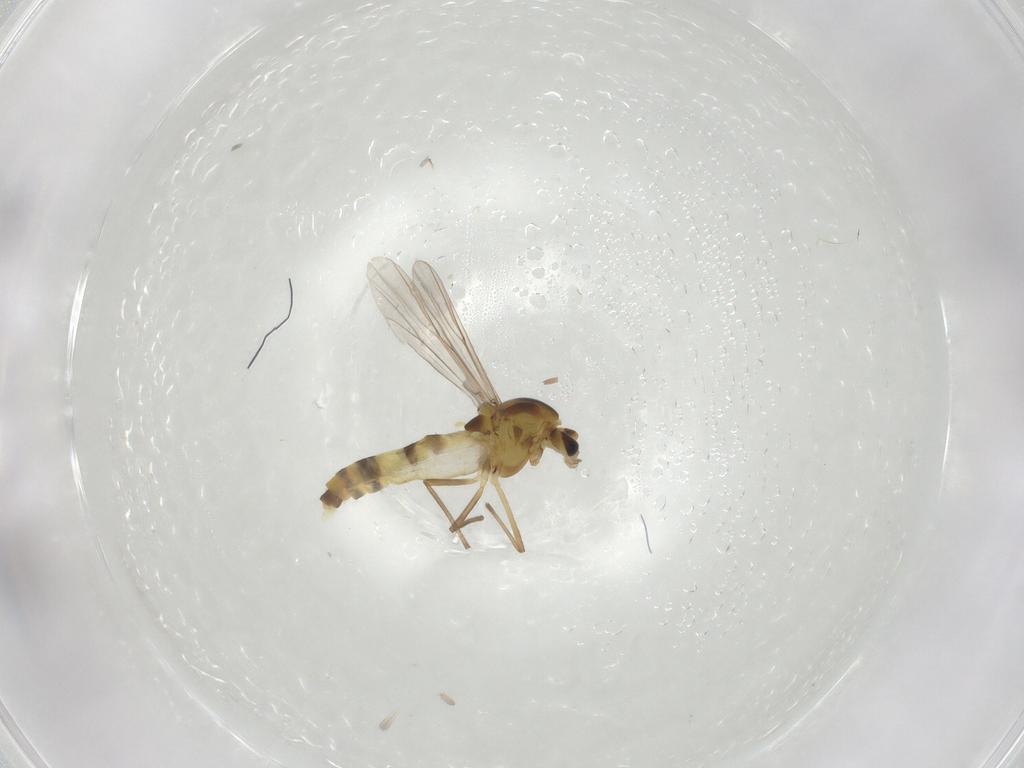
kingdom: Animalia
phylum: Arthropoda
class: Insecta
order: Diptera
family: Chironomidae
